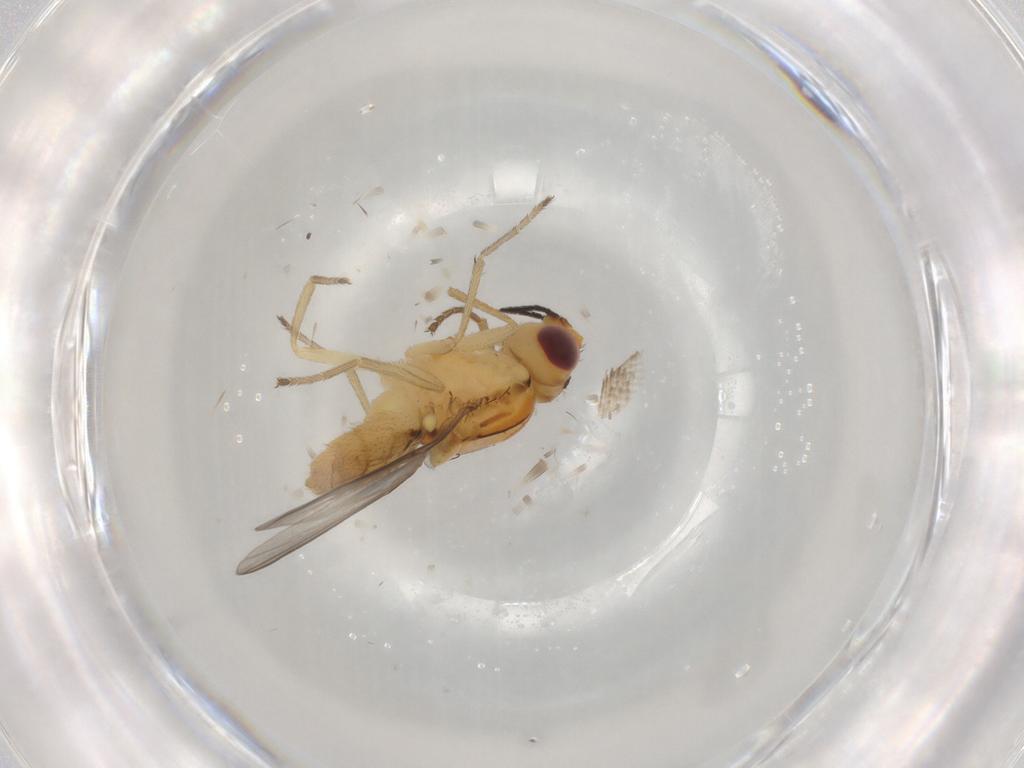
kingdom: Animalia
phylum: Arthropoda
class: Insecta
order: Diptera
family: Chloropidae
